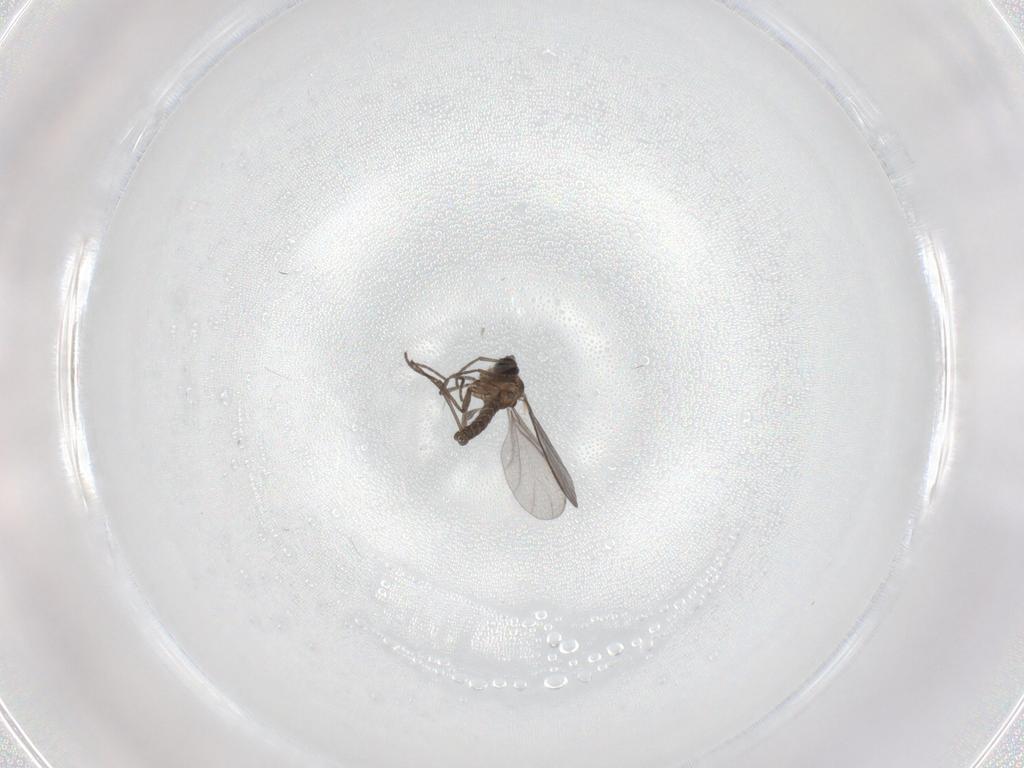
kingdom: Animalia
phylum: Arthropoda
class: Insecta
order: Diptera
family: Sciaridae
